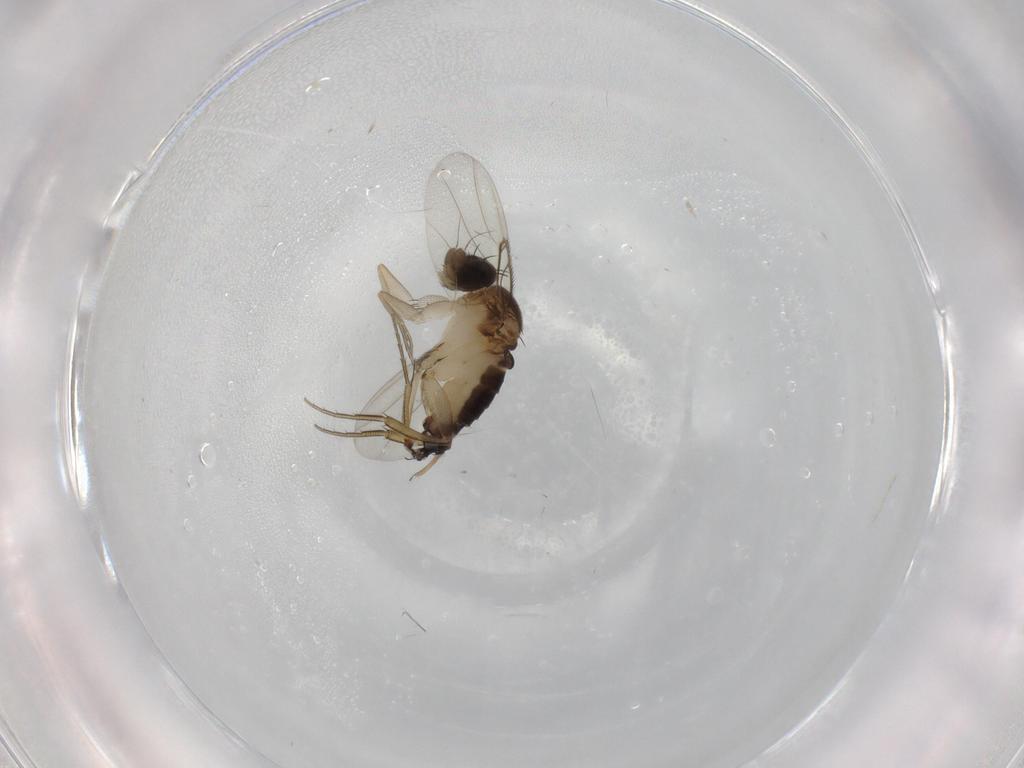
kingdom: Animalia
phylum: Arthropoda
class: Insecta
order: Diptera
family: Phoridae
